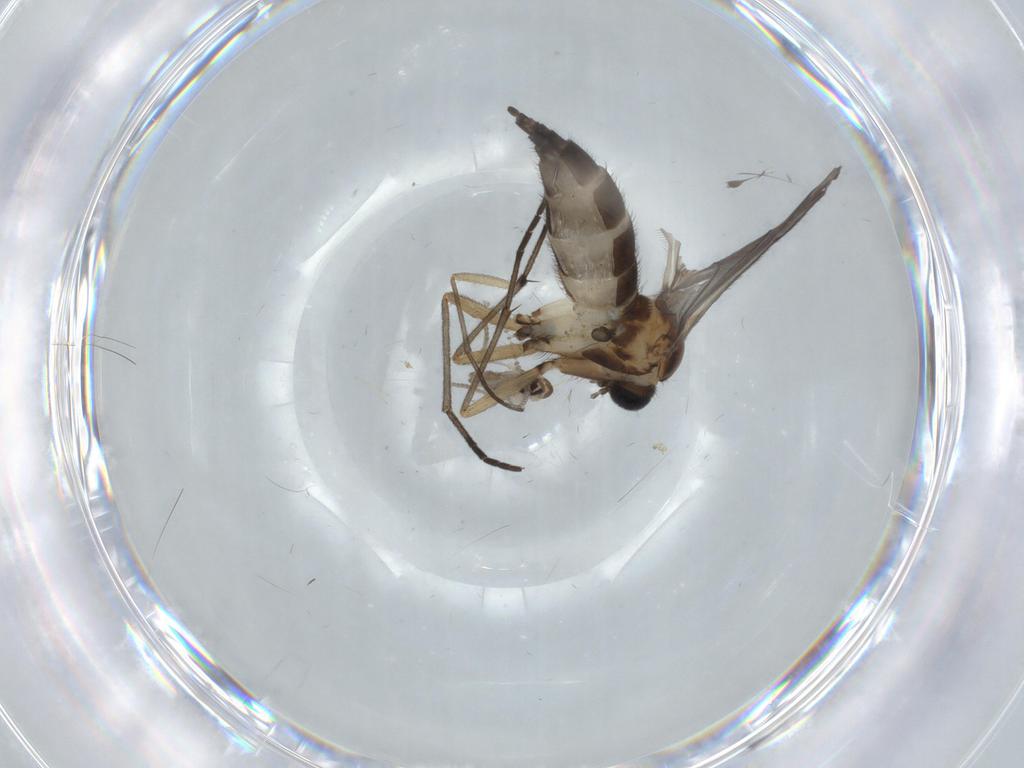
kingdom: Animalia
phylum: Arthropoda
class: Insecta
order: Diptera
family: Sciaridae
